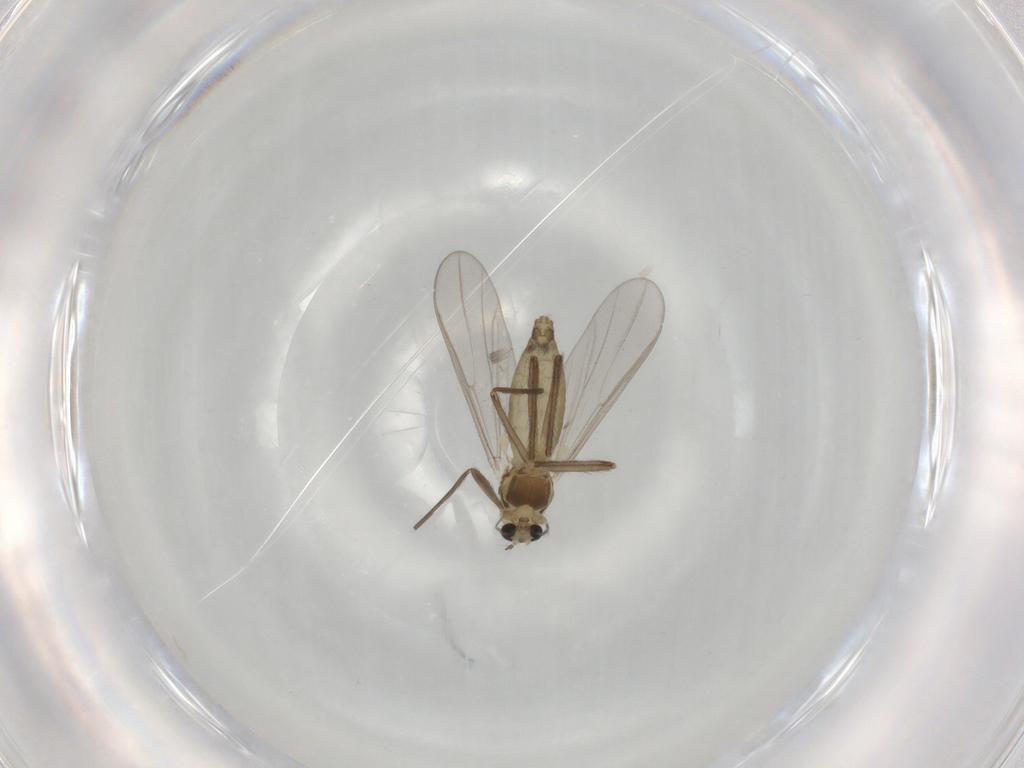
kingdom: Animalia
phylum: Arthropoda
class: Insecta
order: Diptera
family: Chironomidae
